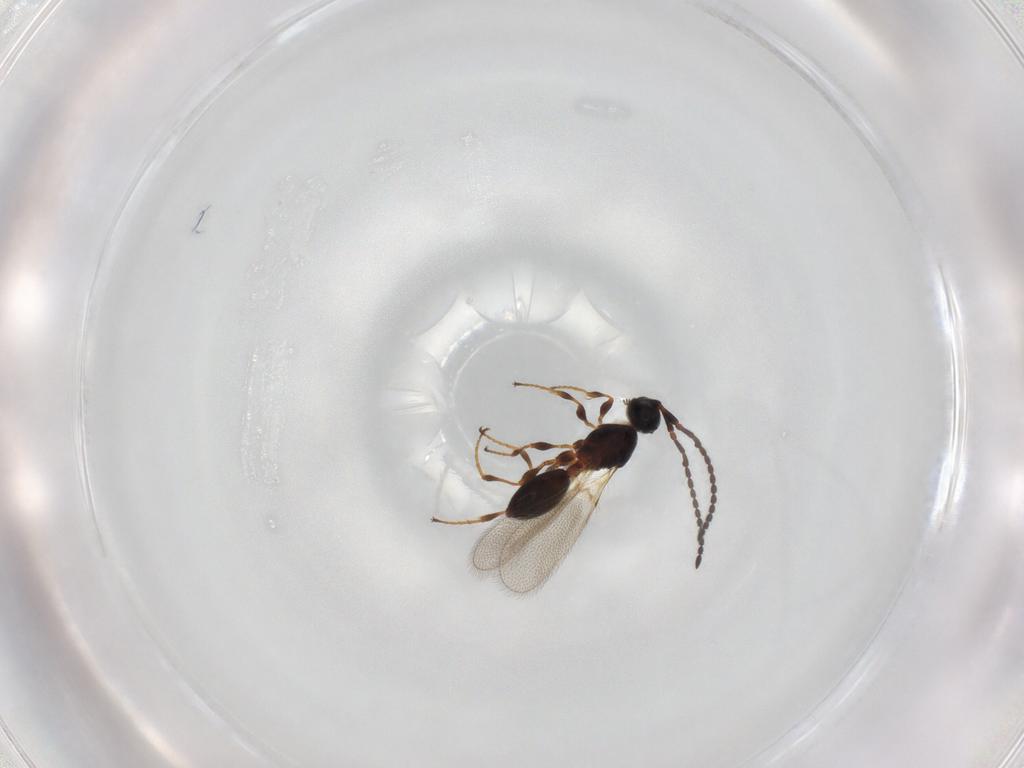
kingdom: Animalia
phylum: Arthropoda
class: Insecta
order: Hymenoptera
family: Diapriidae
